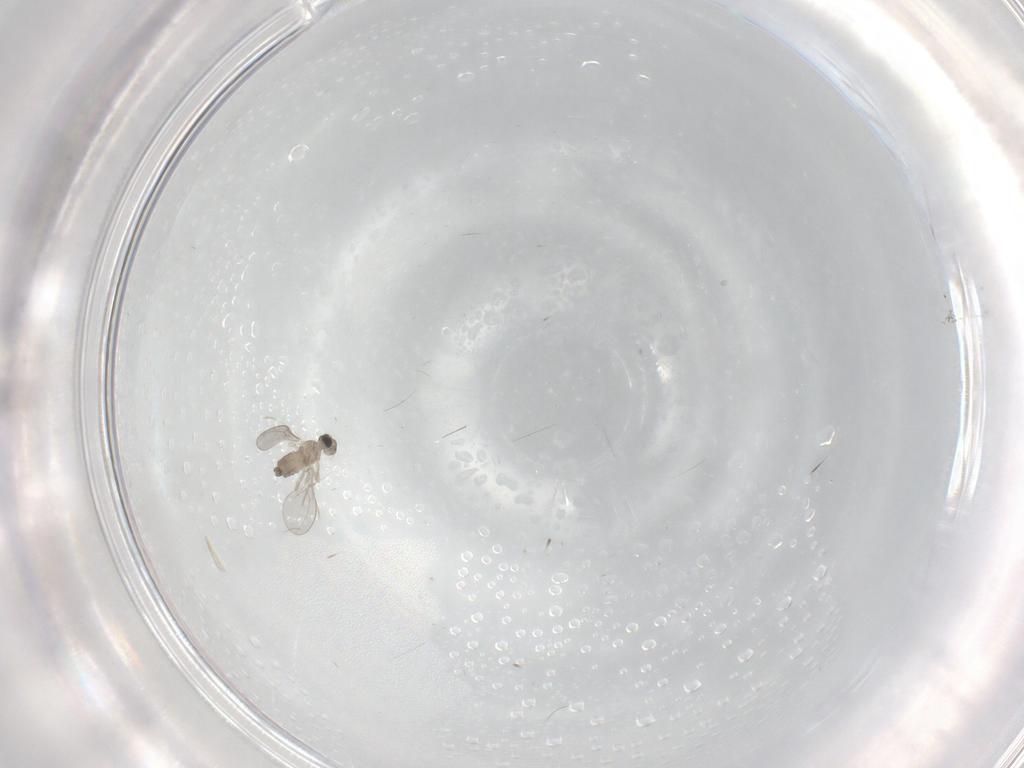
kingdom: Animalia
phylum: Arthropoda
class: Insecta
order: Diptera
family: Cecidomyiidae
